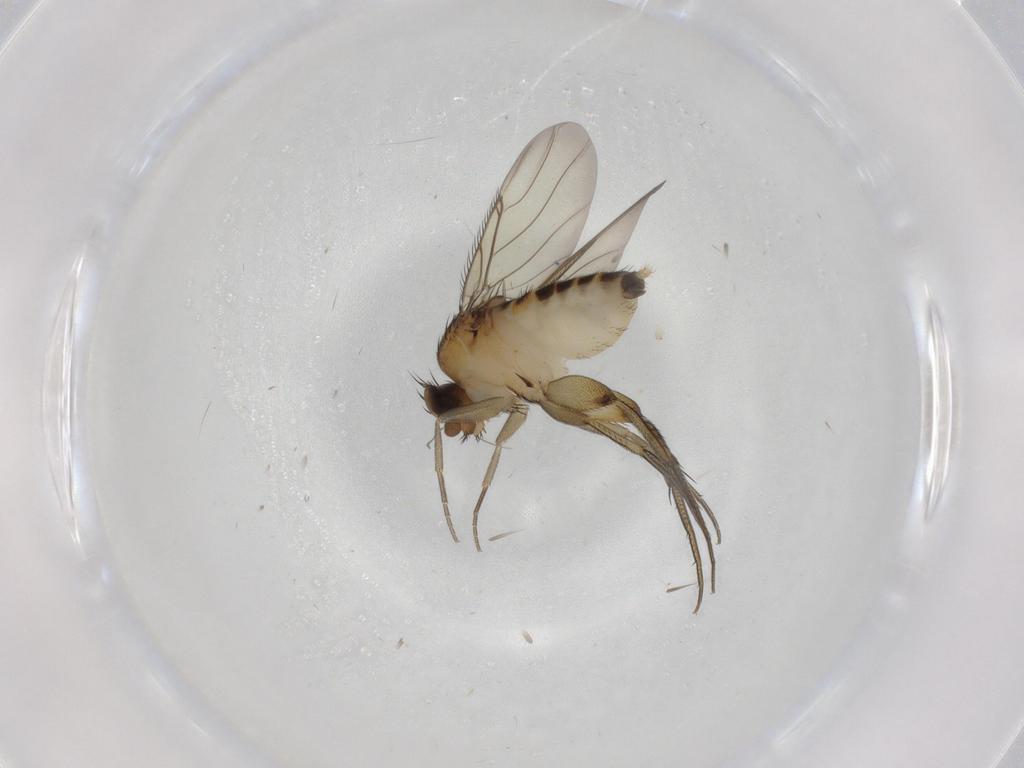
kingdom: Animalia
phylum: Arthropoda
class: Insecta
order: Diptera
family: Phoridae
